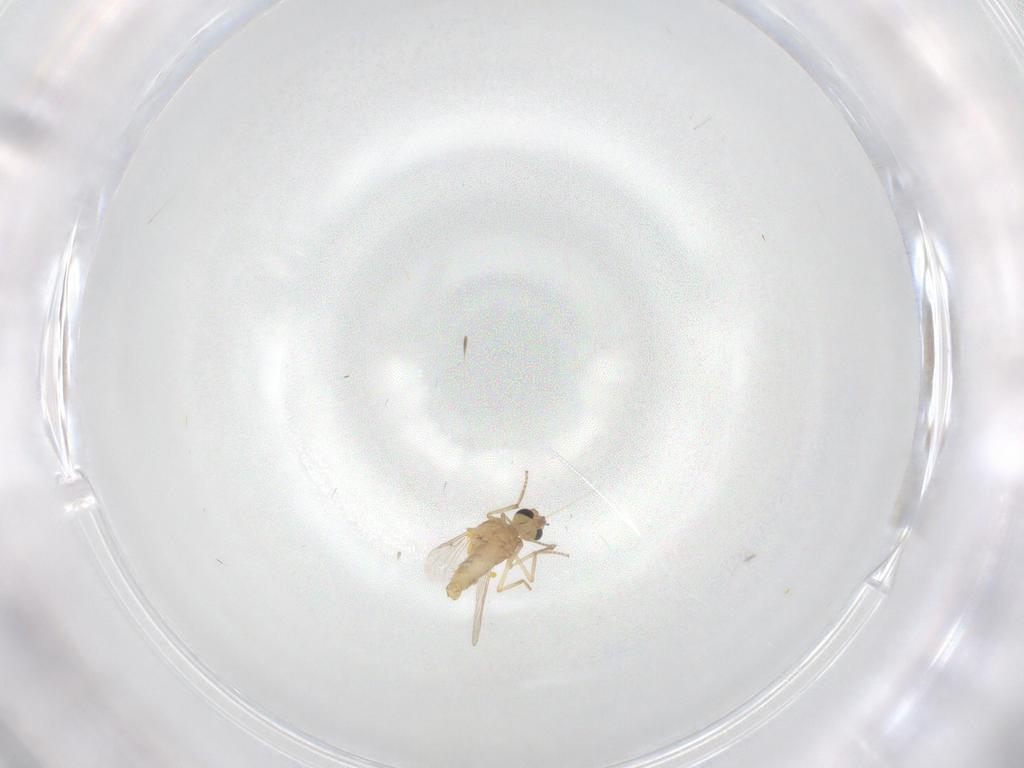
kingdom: Animalia
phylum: Arthropoda
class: Insecta
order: Diptera
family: Ceratopogonidae
